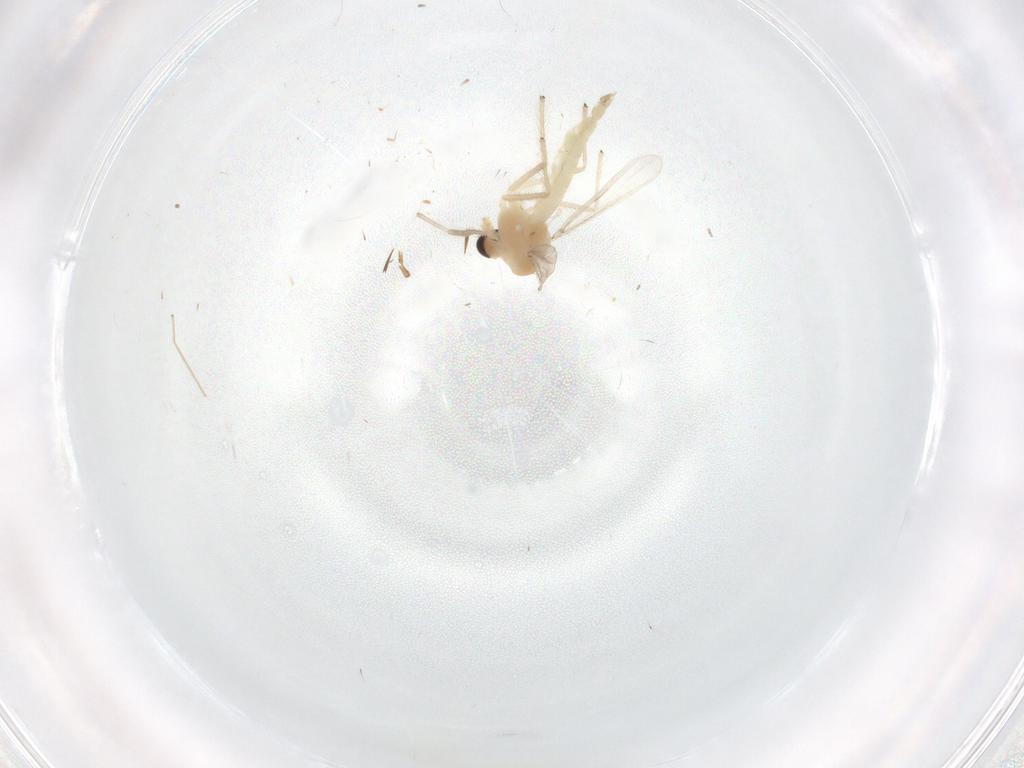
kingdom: Animalia
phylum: Arthropoda
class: Insecta
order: Diptera
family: Chironomidae
